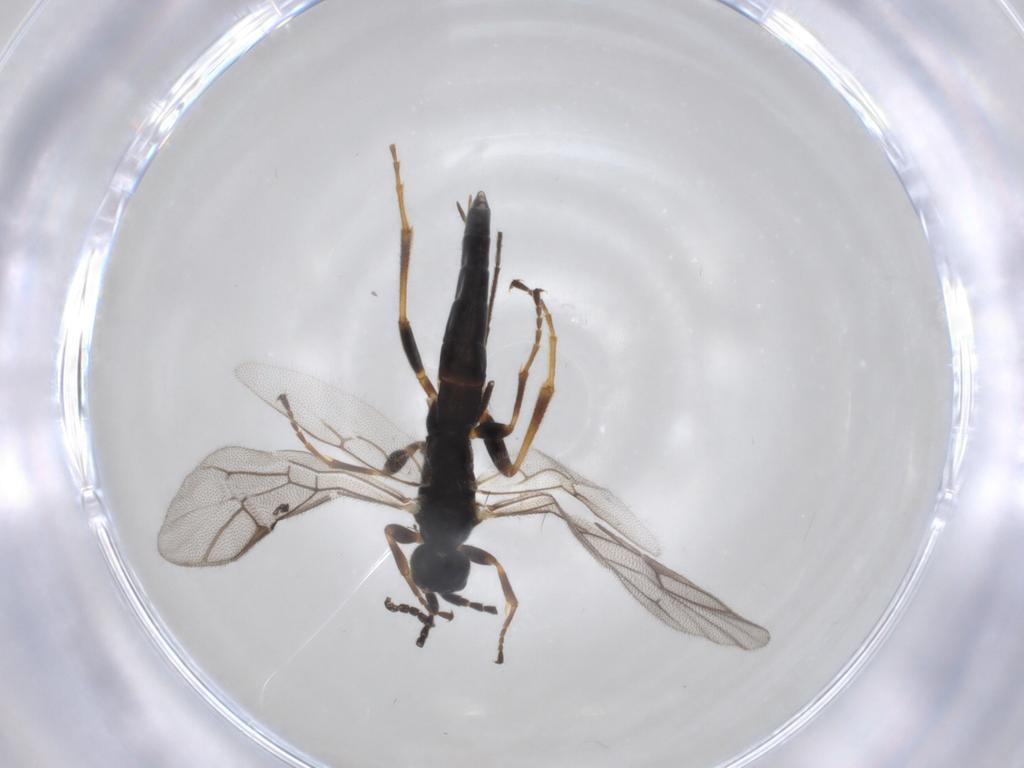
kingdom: Animalia
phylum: Arthropoda
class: Insecta
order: Hymenoptera
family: Ichneumonidae
